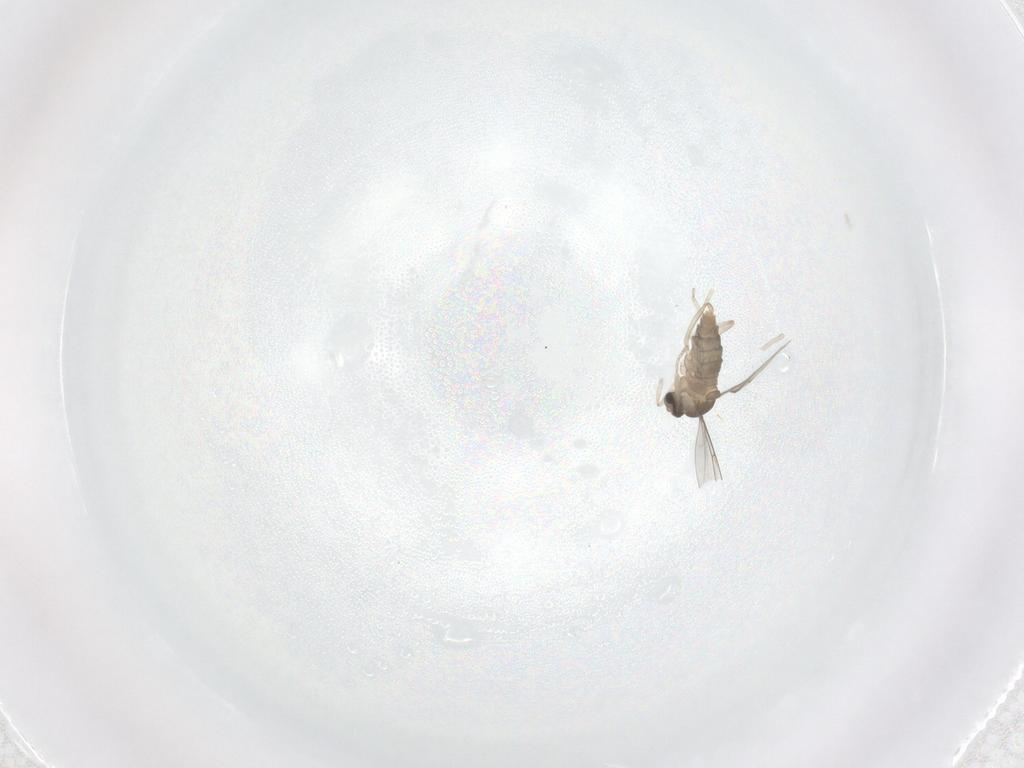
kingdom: Animalia
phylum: Arthropoda
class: Insecta
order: Diptera
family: Cecidomyiidae
